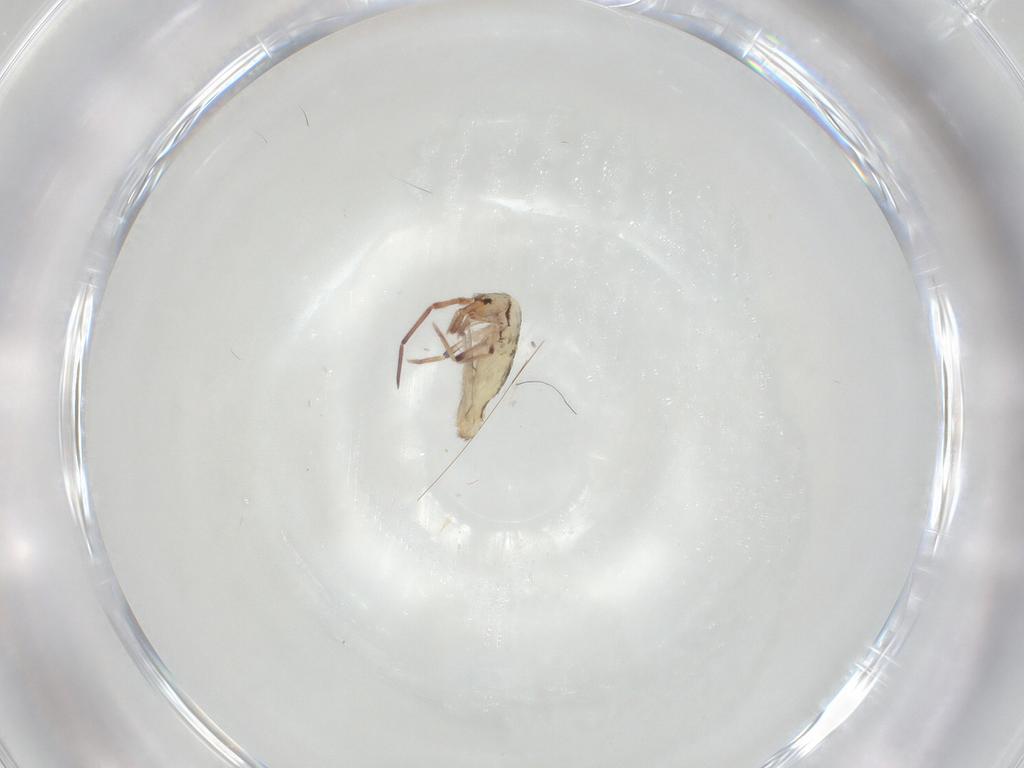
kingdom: Animalia
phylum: Arthropoda
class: Collembola
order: Entomobryomorpha
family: Entomobryidae
